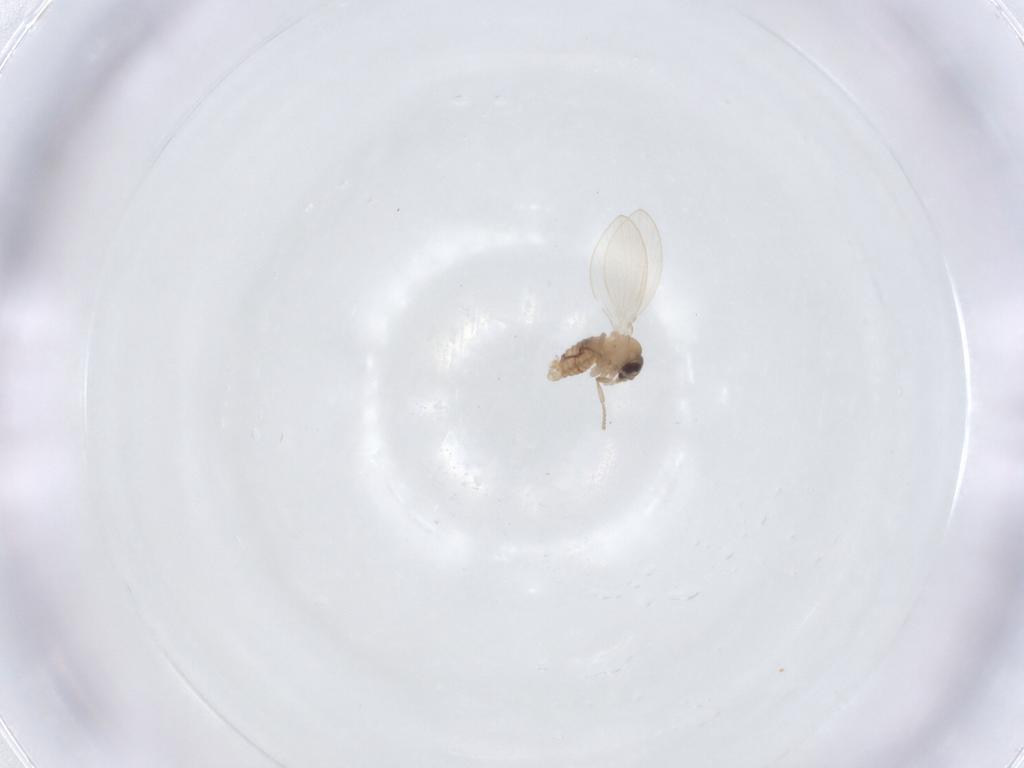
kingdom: Animalia
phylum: Arthropoda
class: Insecta
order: Diptera
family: Psychodidae
